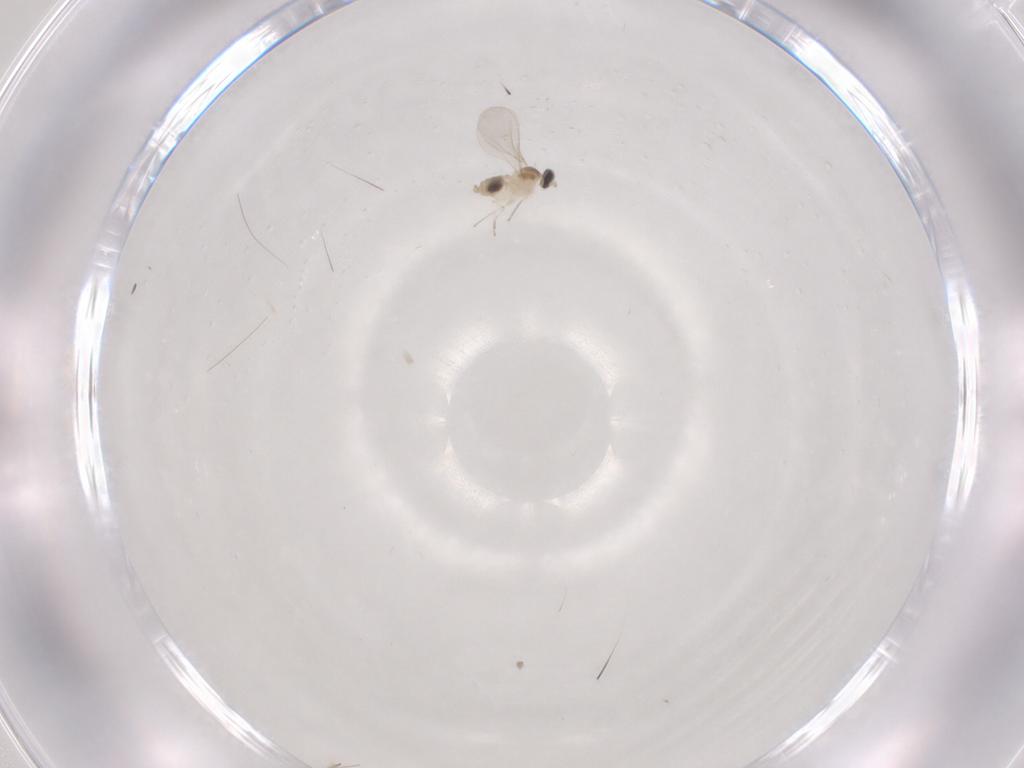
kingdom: Animalia
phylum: Arthropoda
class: Insecta
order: Diptera
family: Cecidomyiidae
